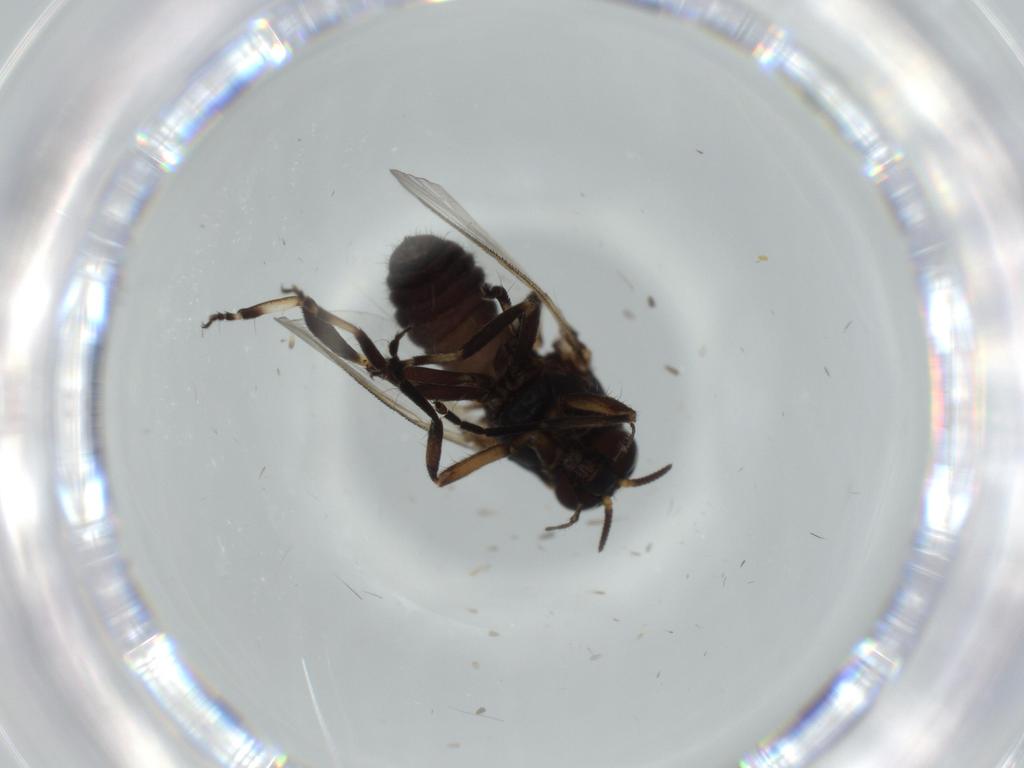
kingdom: Animalia
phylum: Arthropoda
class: Insecta
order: Diptera
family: Cecidomyiidae
